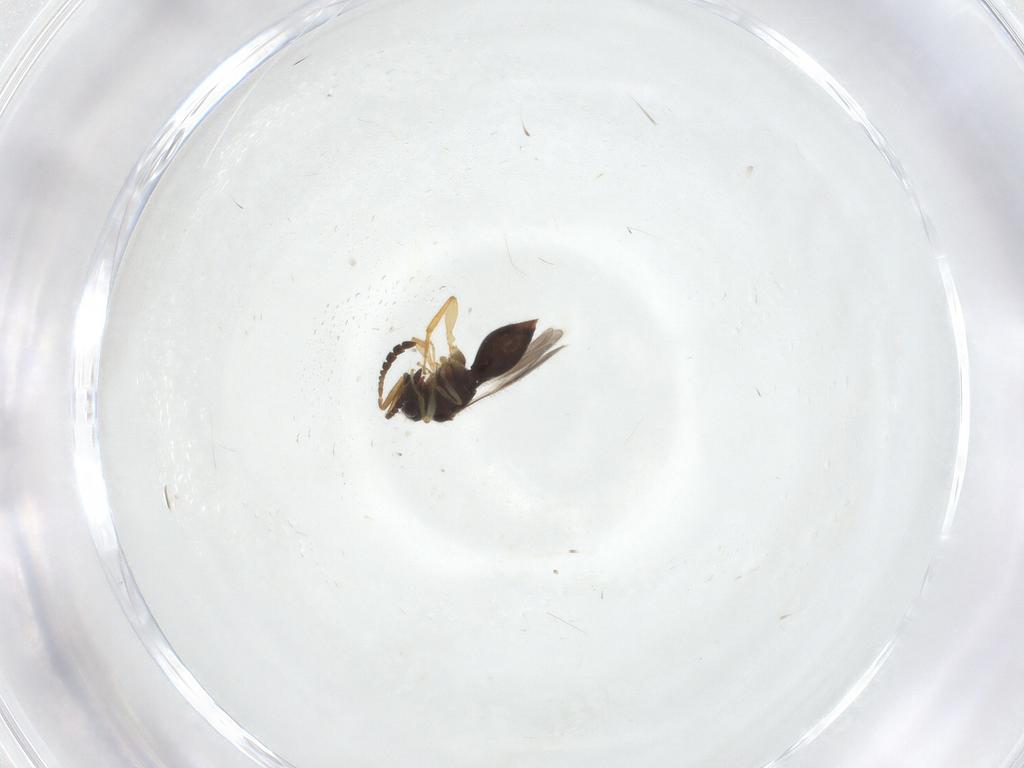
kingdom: Animalia
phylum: Arthropoda
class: Insecta
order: Hymenoptera
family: Ceraphronidae
